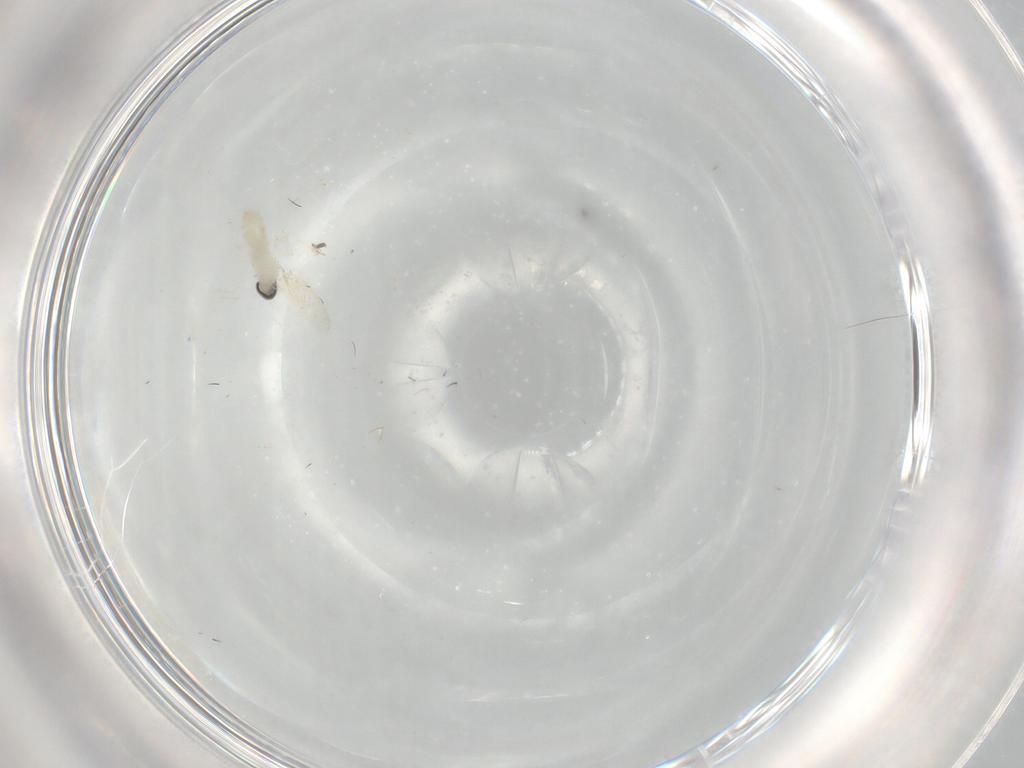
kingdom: Animalia
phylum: Arthropoda
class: Insecta
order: Diptera
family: Cecidomyiidae
